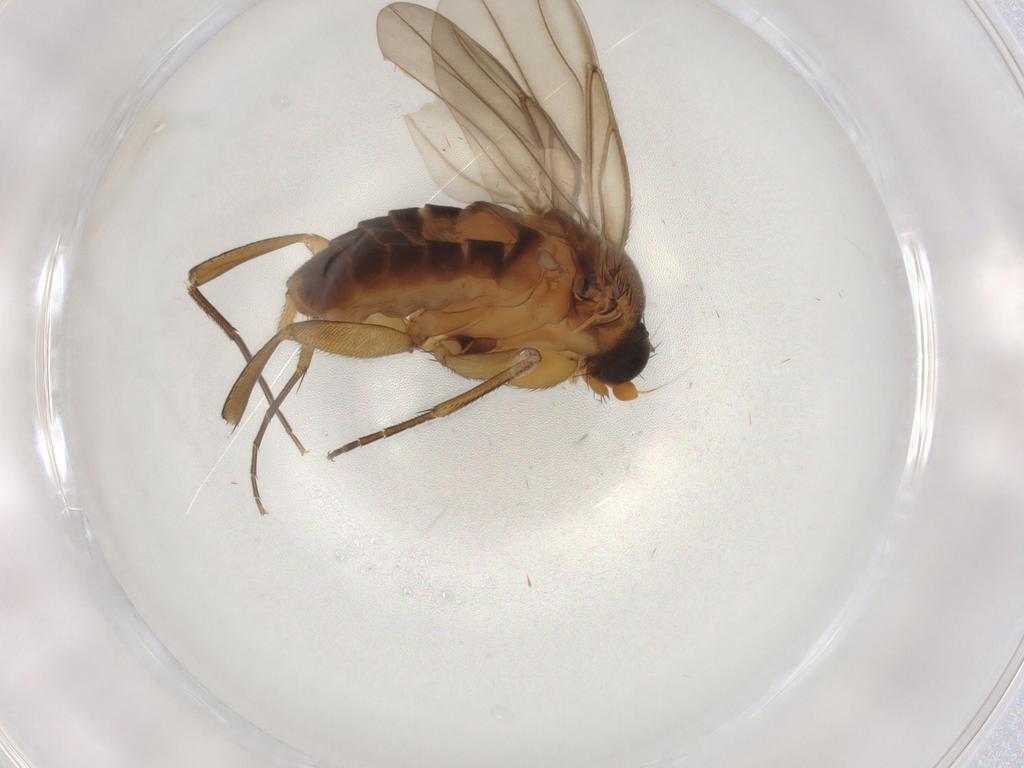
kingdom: Animalia
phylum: Arthropoda
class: Insecta
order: Diptera
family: Phoridae
